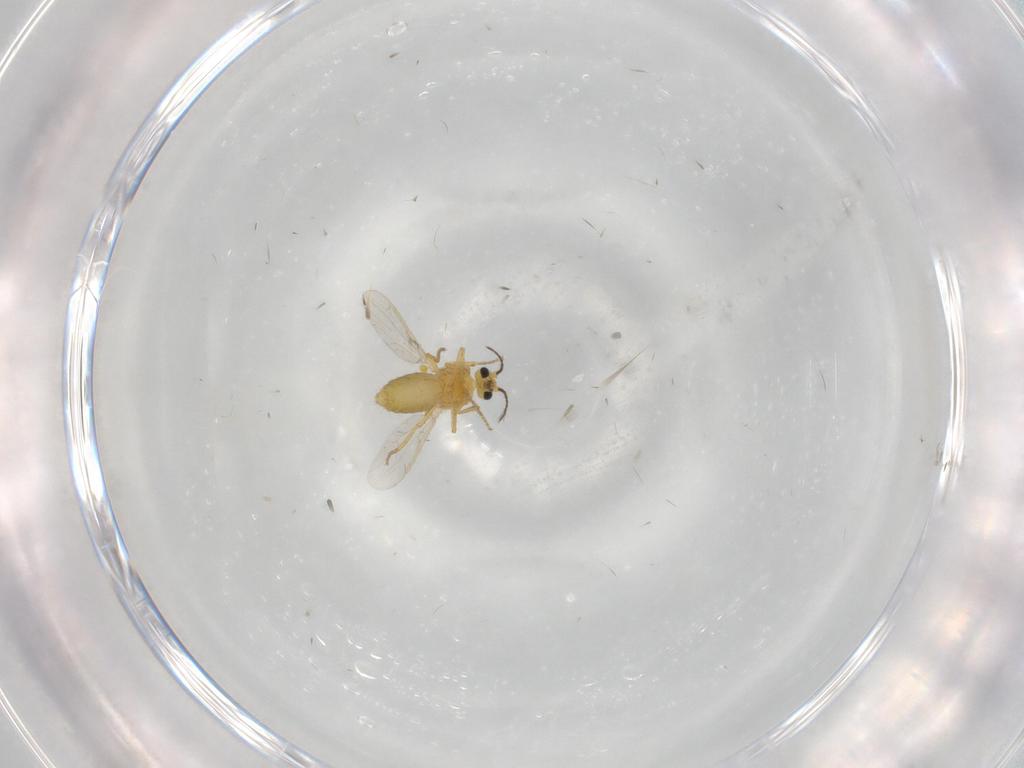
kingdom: Animalia
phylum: Arthropoda
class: Insecta
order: Diptera
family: Ceratopogonidae
